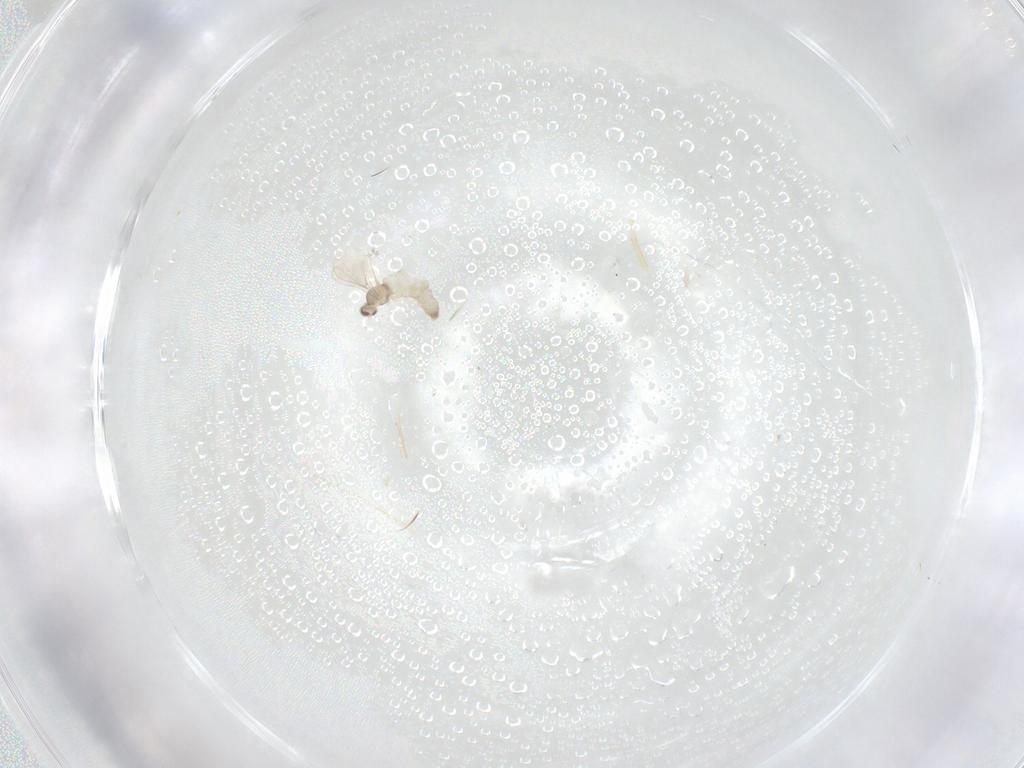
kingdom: Animalia
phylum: Arthropoda
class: Insecta
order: Diptera
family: Cecidomyiidae
